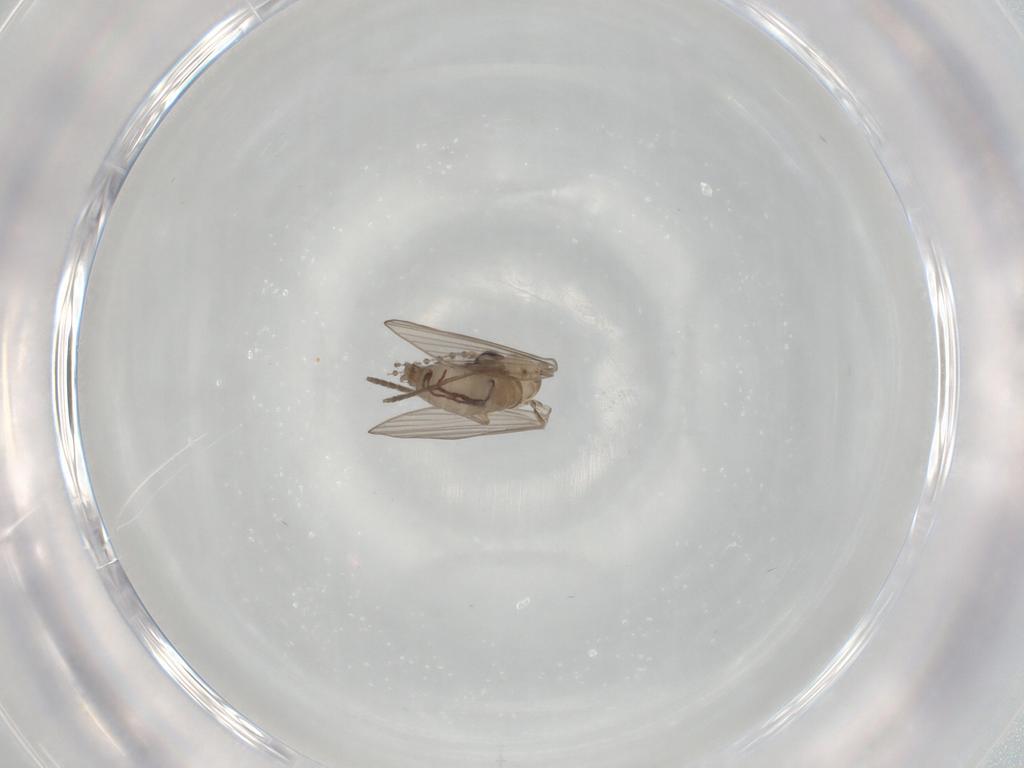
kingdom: Animalia
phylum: Arthropoda
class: Insecta
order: Diptera
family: Psychodidae
